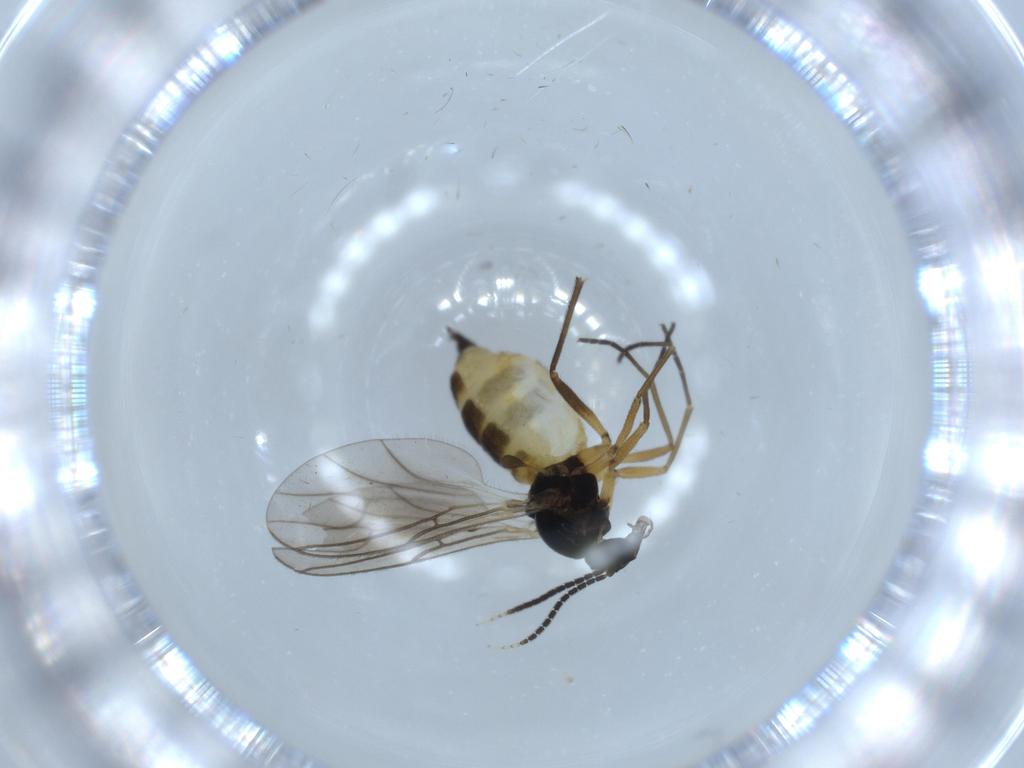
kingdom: Animalia
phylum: Arthropoda
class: Insecta
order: Diptera
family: Sciaridae
